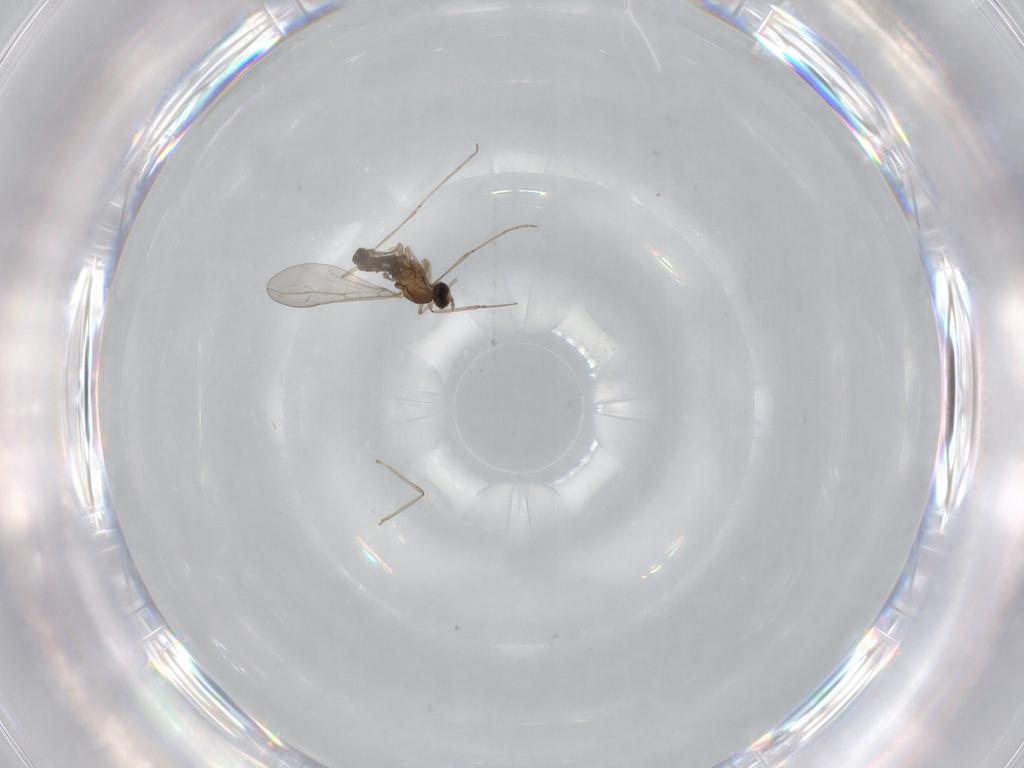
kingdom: Animalia
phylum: Arthropoda
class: Insecta
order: Diptera
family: Cecidomyiidae
